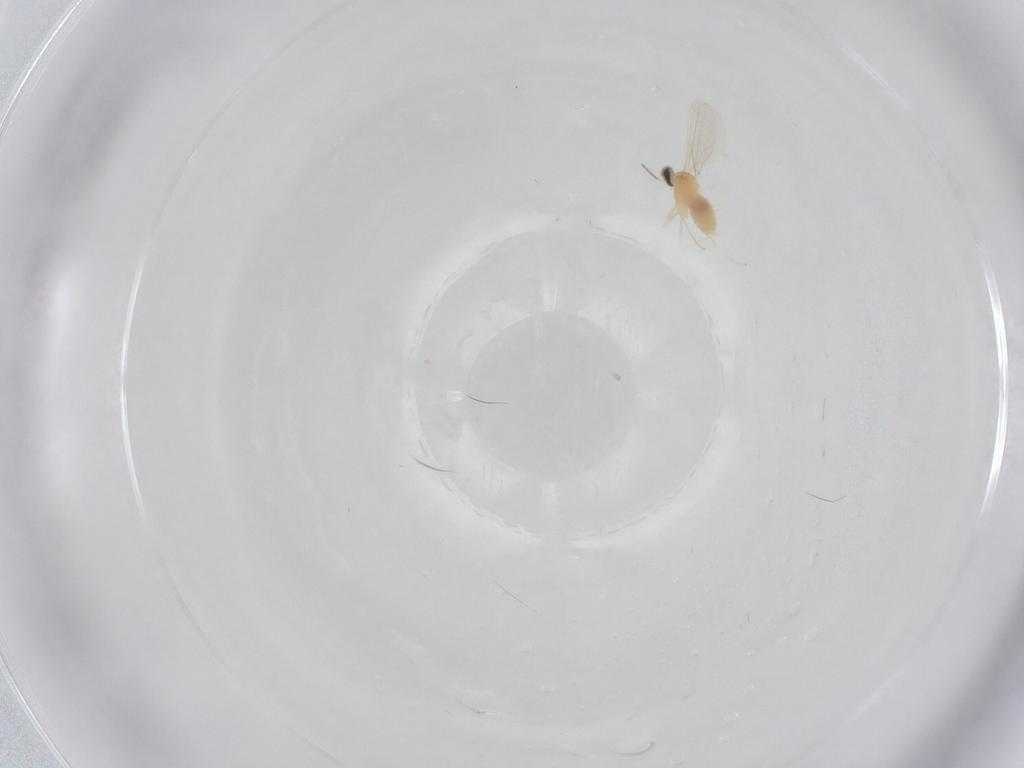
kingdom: Animalia
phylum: Arthropoda
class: Insecta
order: Diptera
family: Cecidomyiidae
